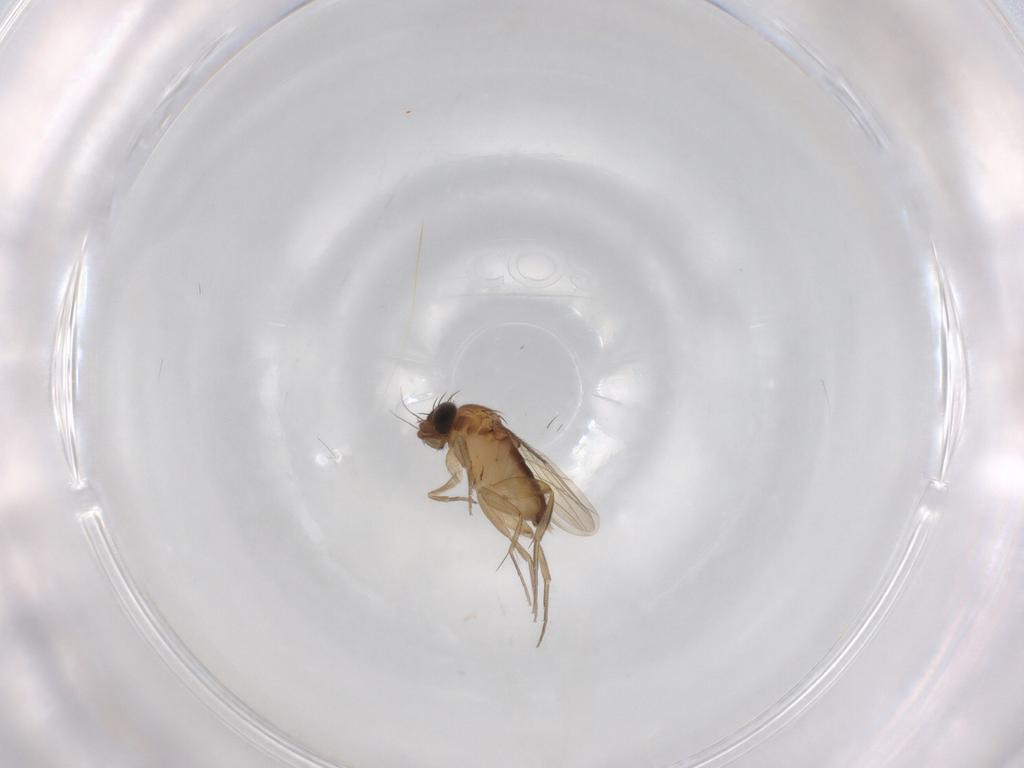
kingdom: Animalia
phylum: Arthropoda
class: Insecta
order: Diptera
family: Phoridae
